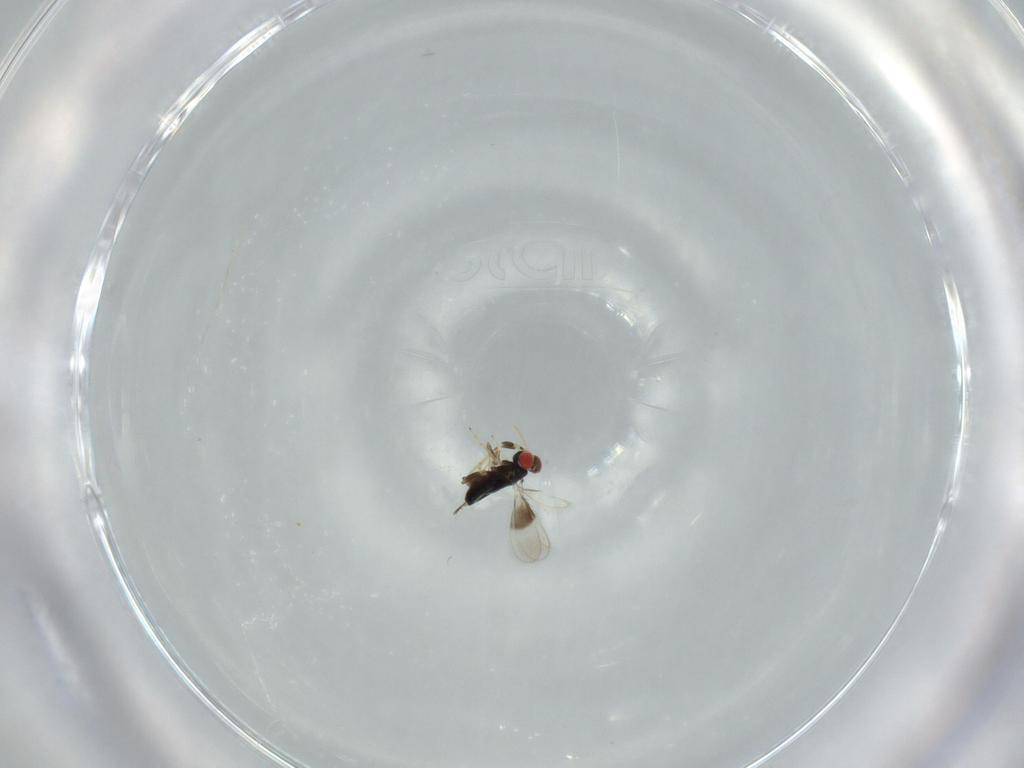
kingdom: Animalia
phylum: Arthropoda
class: Insecta
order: Hymenoptera
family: Azotidae
